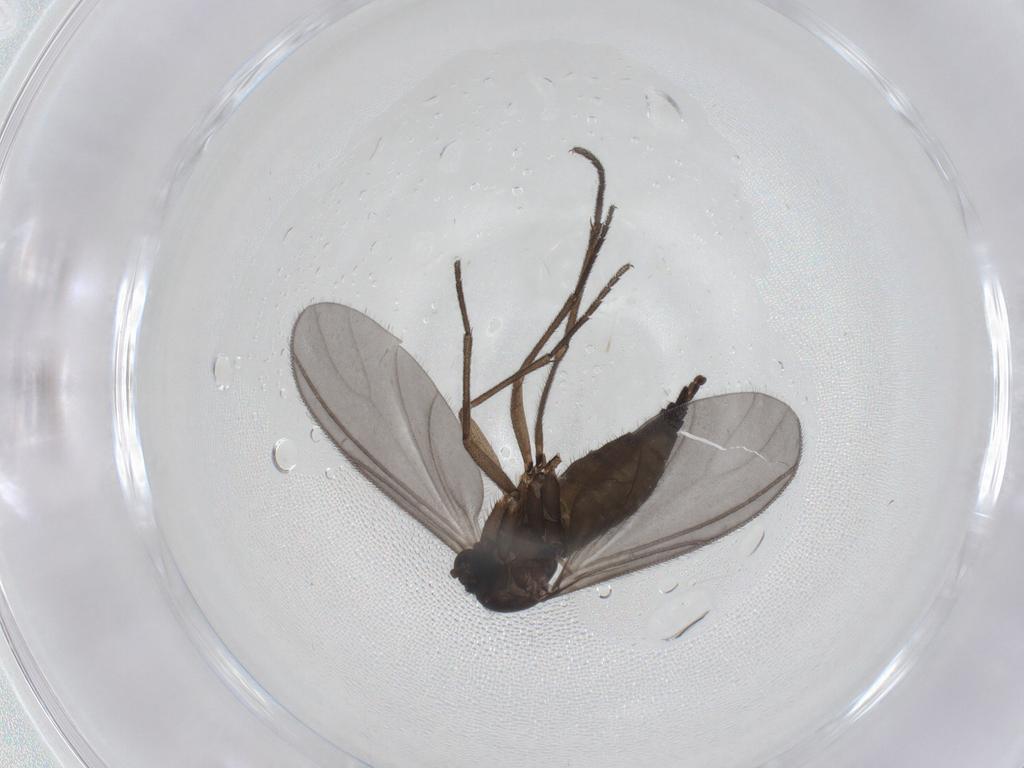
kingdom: Animalia
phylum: Arthropoda
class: Insecta
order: Diptera
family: Sciaridae
